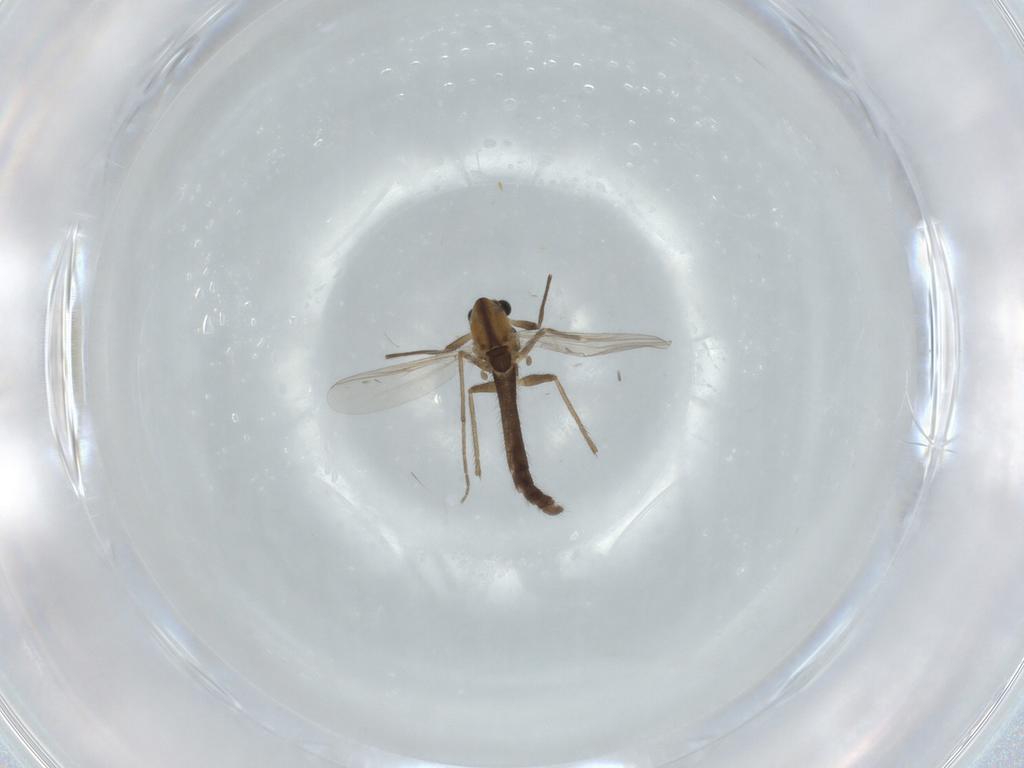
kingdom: Animalia
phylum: Arthropoda
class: Insecta
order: Diptera
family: Chironomidae
